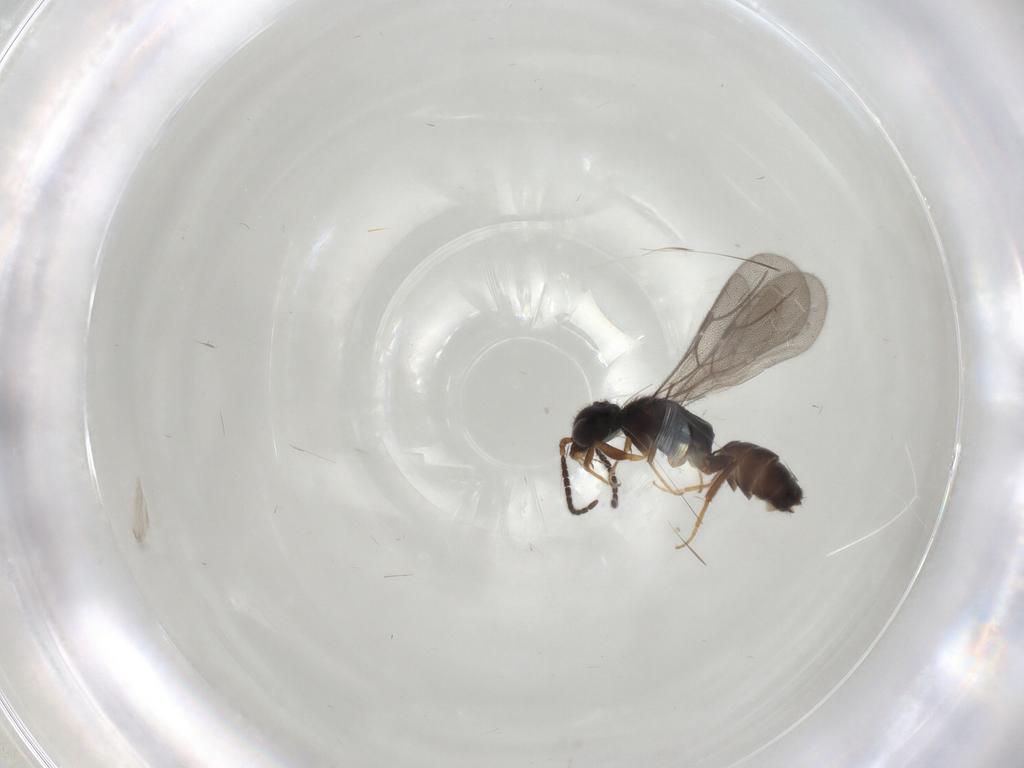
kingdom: Animalia
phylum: Arthropoda
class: Insecta
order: Hymenoptera
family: Bethylidae
